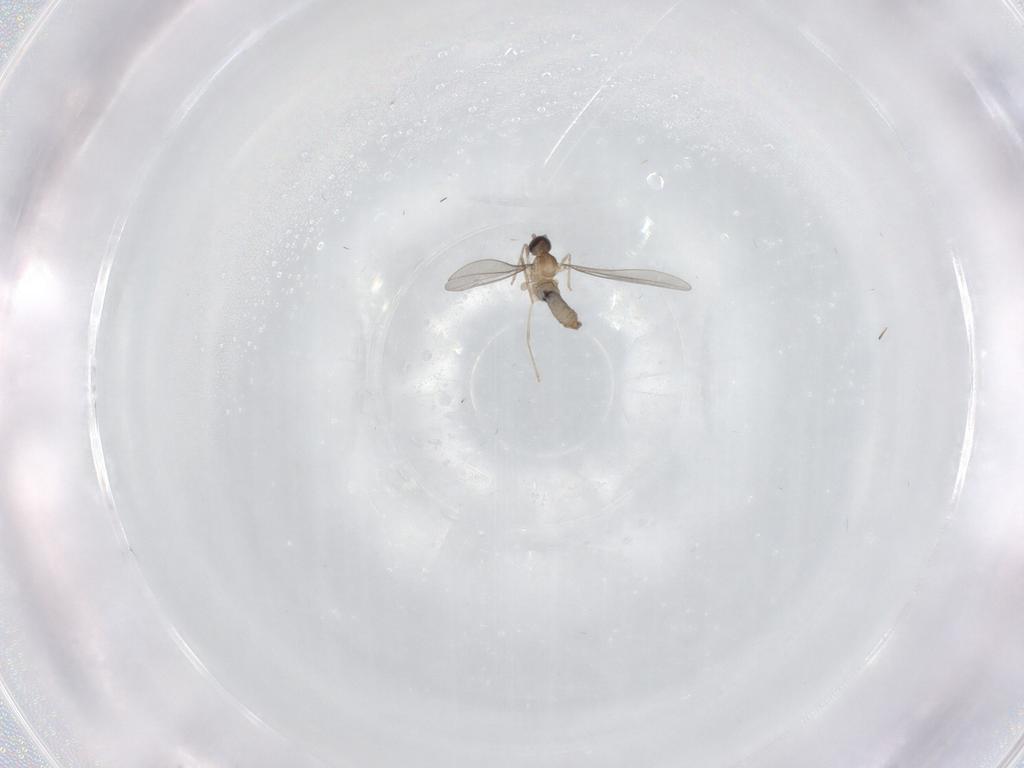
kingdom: Animalia
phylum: Arthropoda
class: Insecta
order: Diptera
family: Cecidomyiidae
